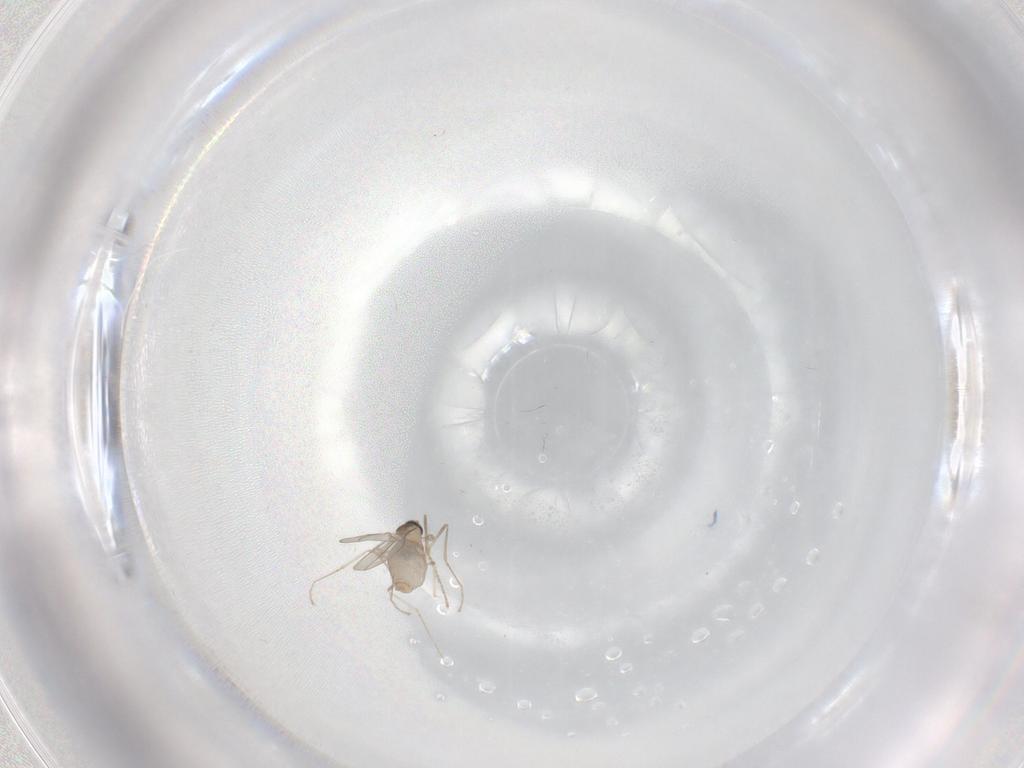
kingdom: Animalia
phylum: Arthropoda
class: Insecta
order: Diptera
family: Cecidomyiidae
